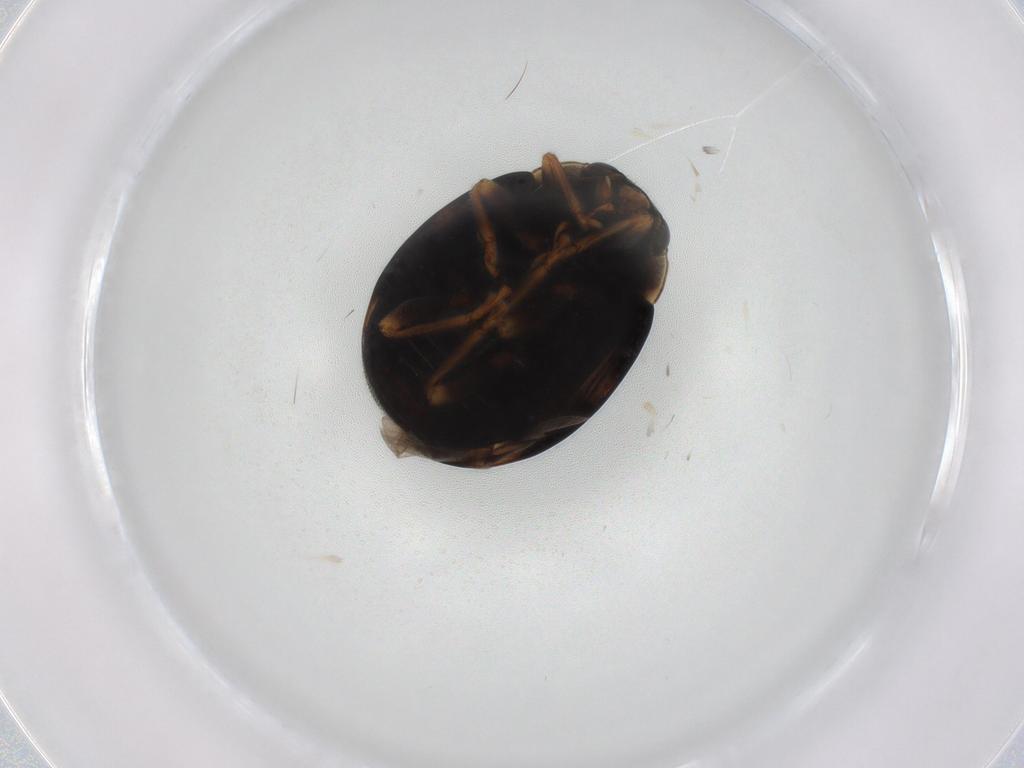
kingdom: Animalia
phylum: Arthropoda
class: Insecta
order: Coleoptera
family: Coccinellidae
